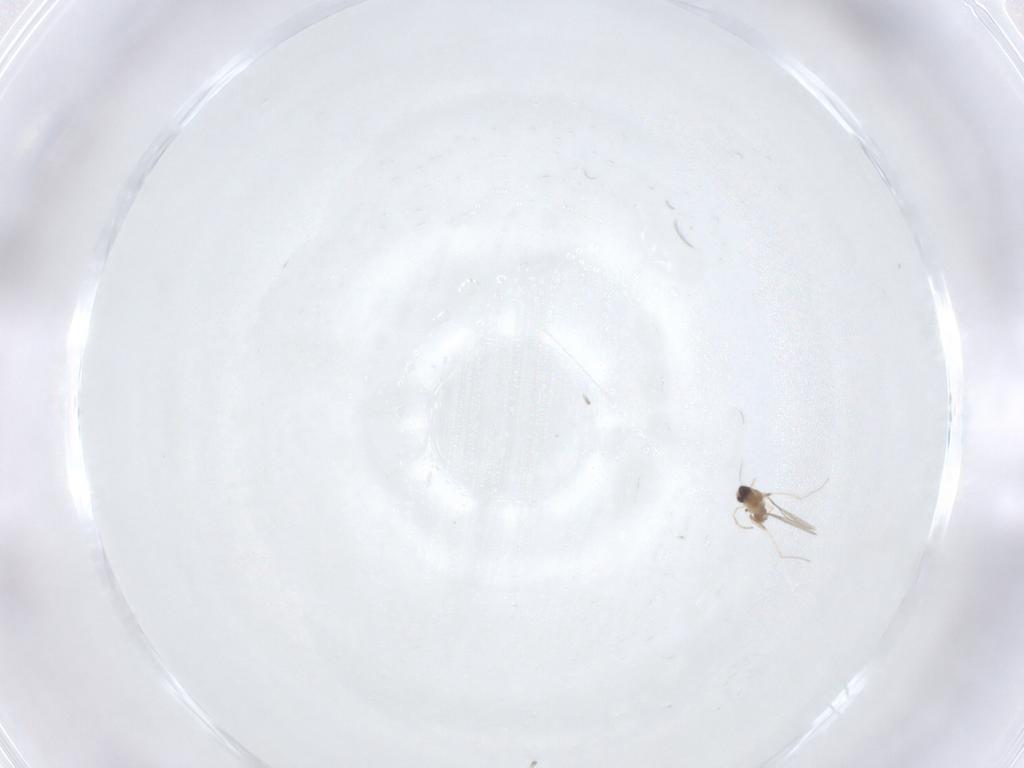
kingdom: Animalia
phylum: Arthropoda
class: Insecta
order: Diptera
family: Cecidomyiidae
